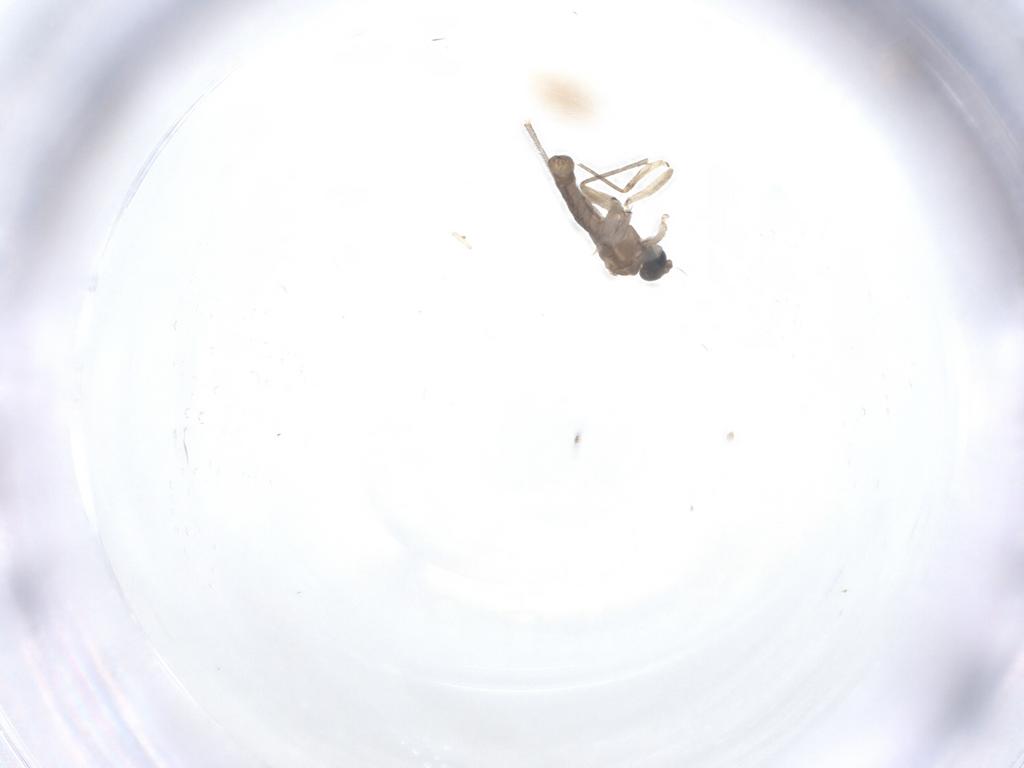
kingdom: Animalia
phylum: Arthropoda
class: Insecta
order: Diptera
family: Sciaridae
